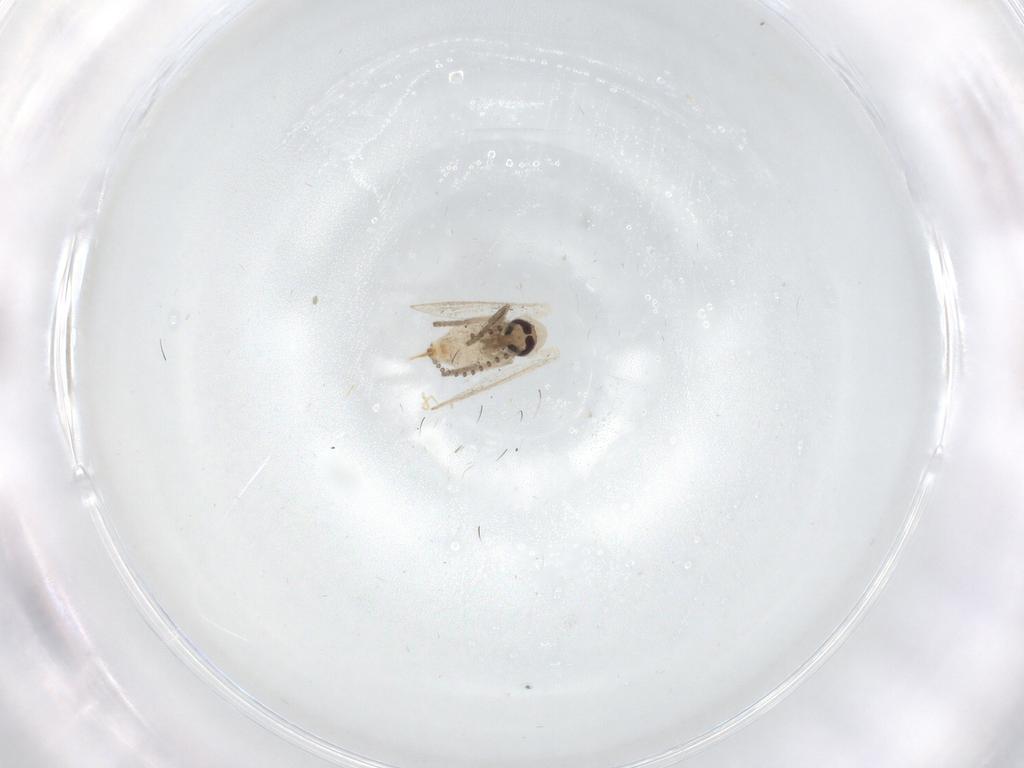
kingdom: Animalia
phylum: Arthropoda
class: Insecta
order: Diptera
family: Psychodidae
